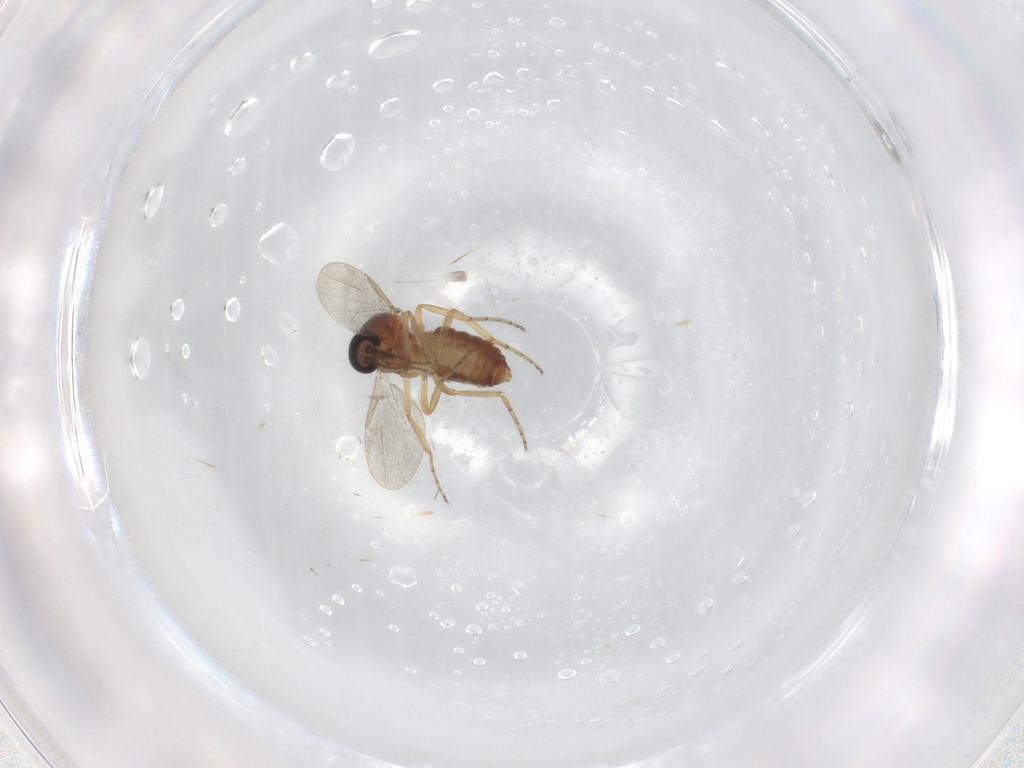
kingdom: Animalia
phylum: Arthropoda
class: Insecta
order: Diptera
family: Ceratopogonidae
